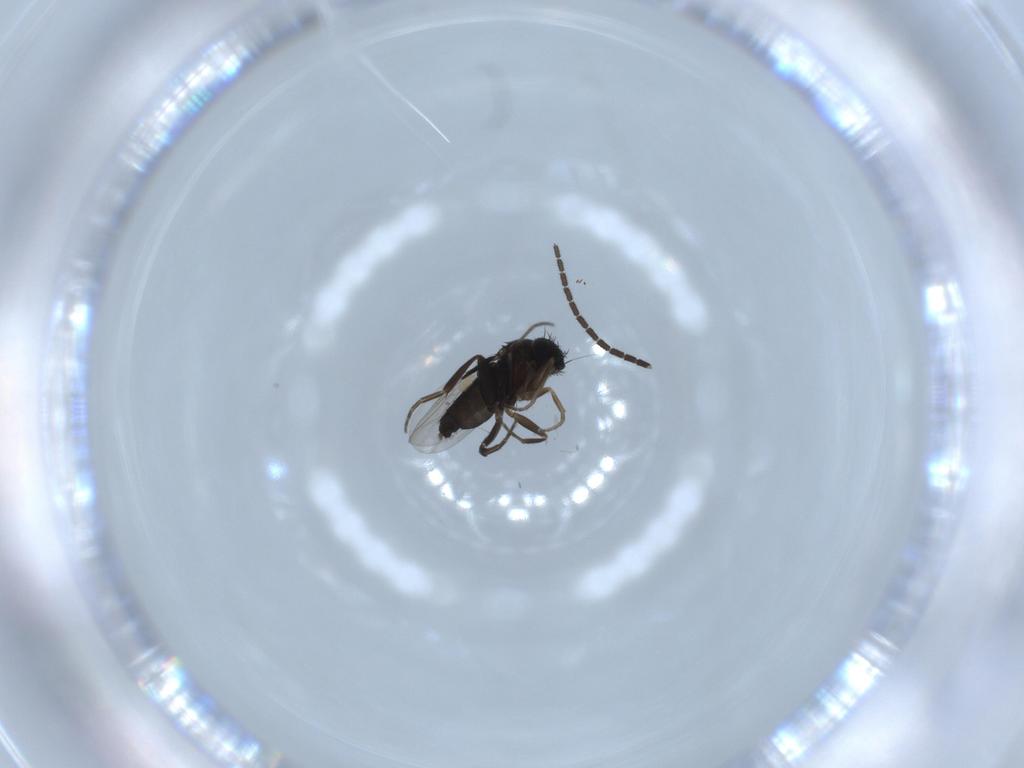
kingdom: Animalia
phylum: Arthropoda
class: Insecta
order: Diptera
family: Phoridae
